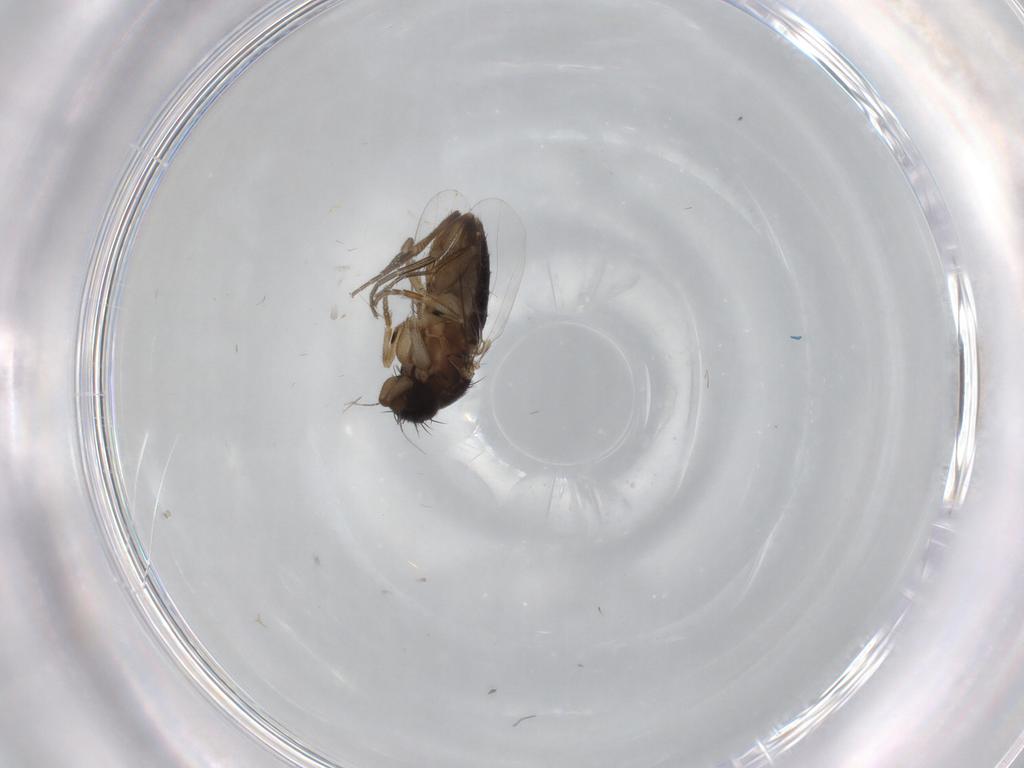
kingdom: Animalia
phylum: Arthropoda
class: Insecta
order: Diptera
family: Phoridae
